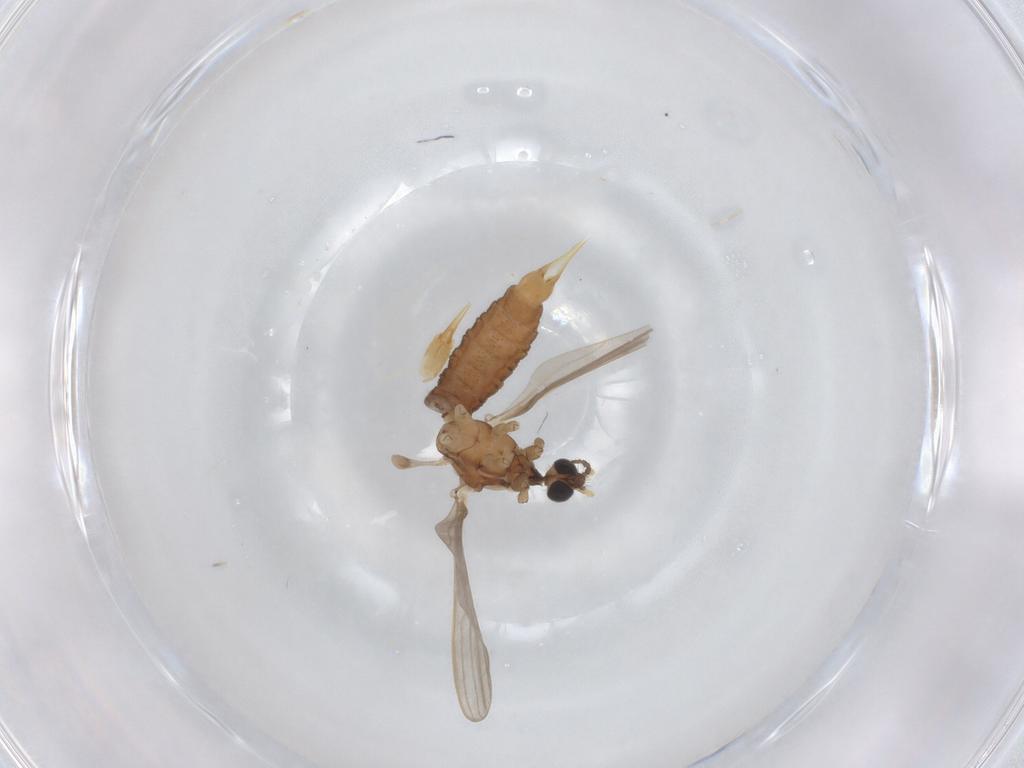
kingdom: Animalia
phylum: Arthropoda
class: Insecta
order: Diptera
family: Limoniidae
